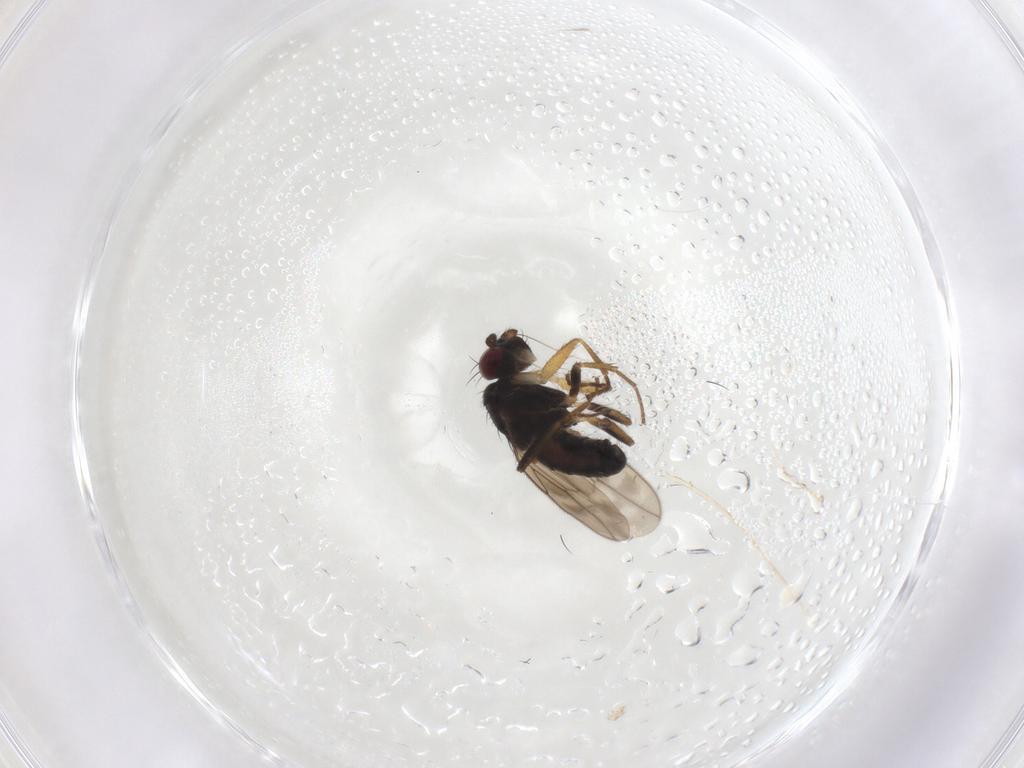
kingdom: Animalia
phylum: Arthropoda
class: Insecta
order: Diptera
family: Sphaeroceridae
